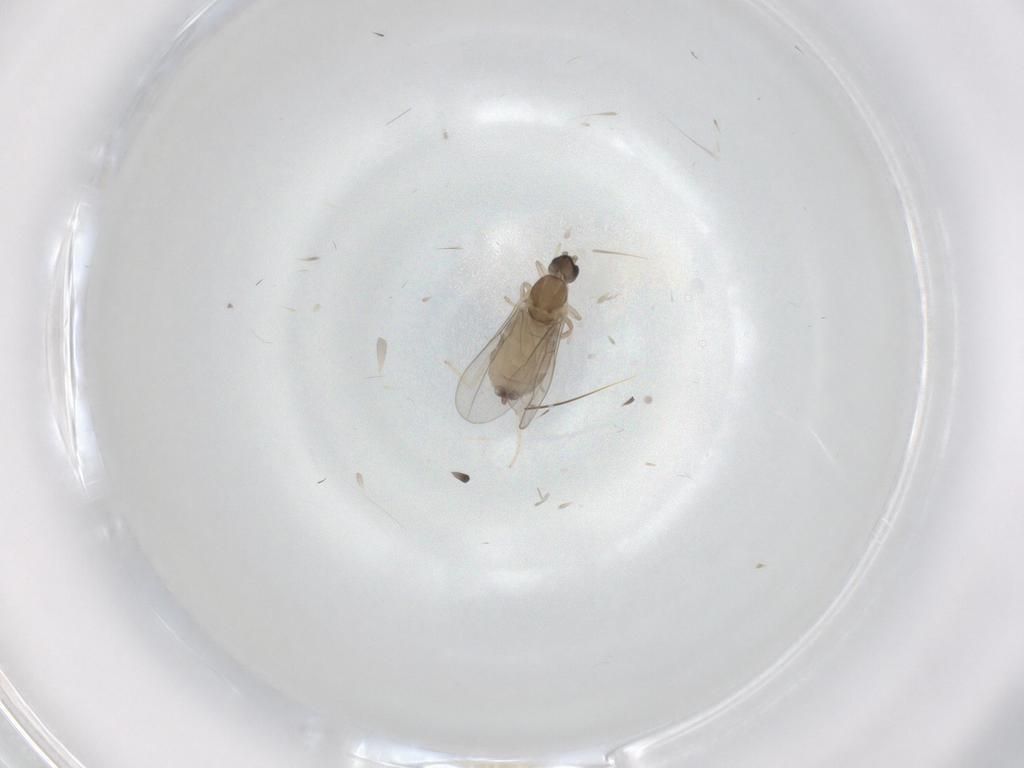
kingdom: Animalia
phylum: Arthropoda
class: Insecta
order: Diptera
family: Cecidomyiidae
